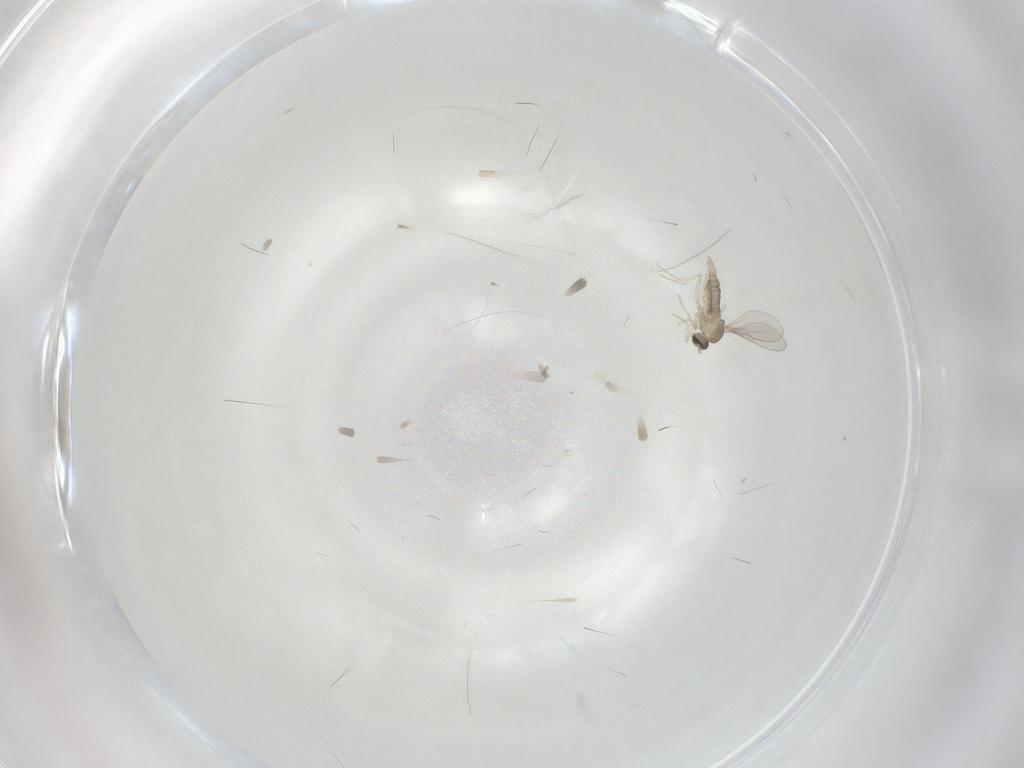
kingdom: Animalia
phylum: Arthropoda
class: Insecta
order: Diptera
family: Cecidomyiidae
